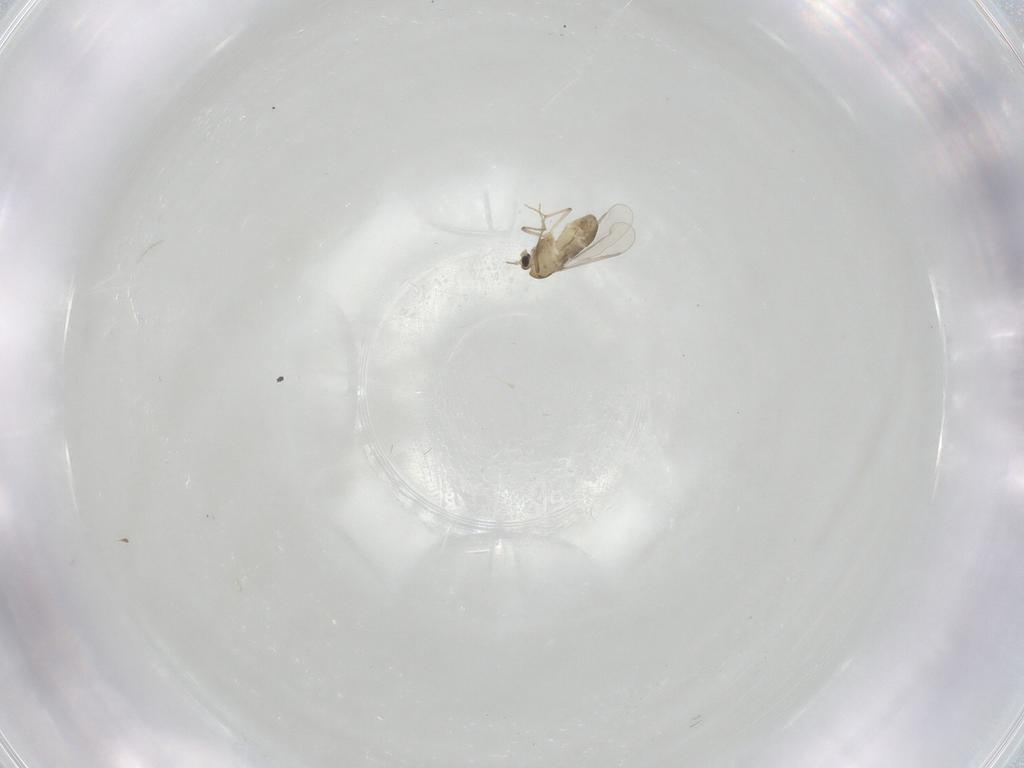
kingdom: Animalia
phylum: Arthropoda
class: Insecta
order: Diptera
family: Chironomidae
